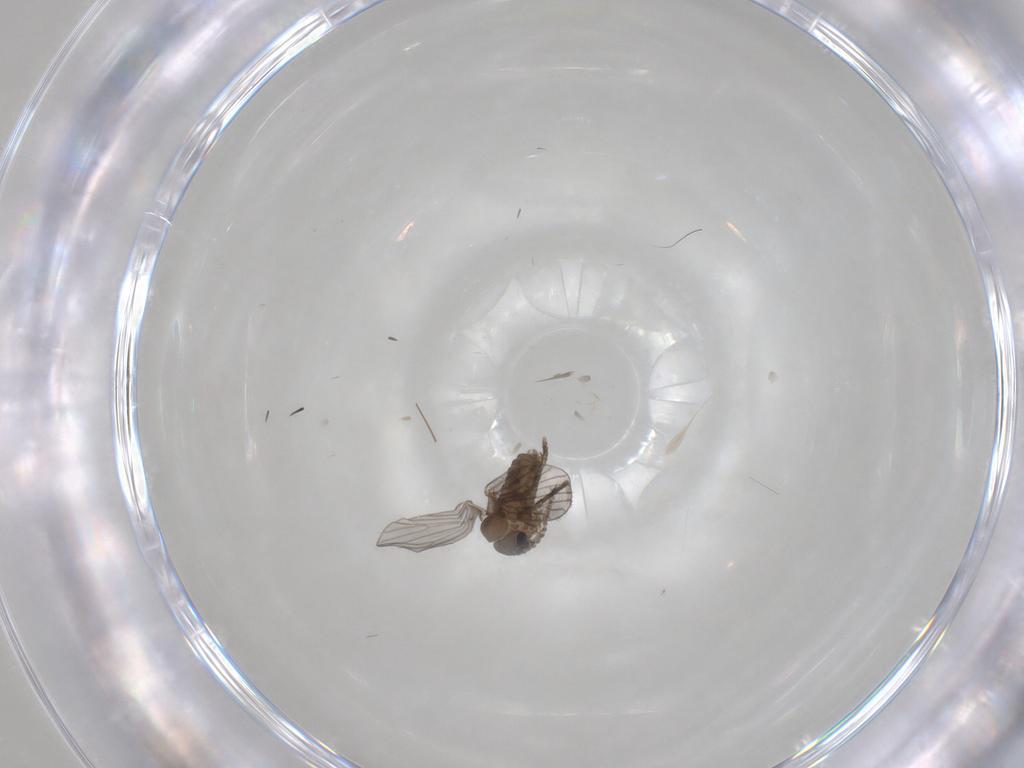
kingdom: Animalia
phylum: Arthropoda
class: Insecta
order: Diptera
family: Psychodidae
